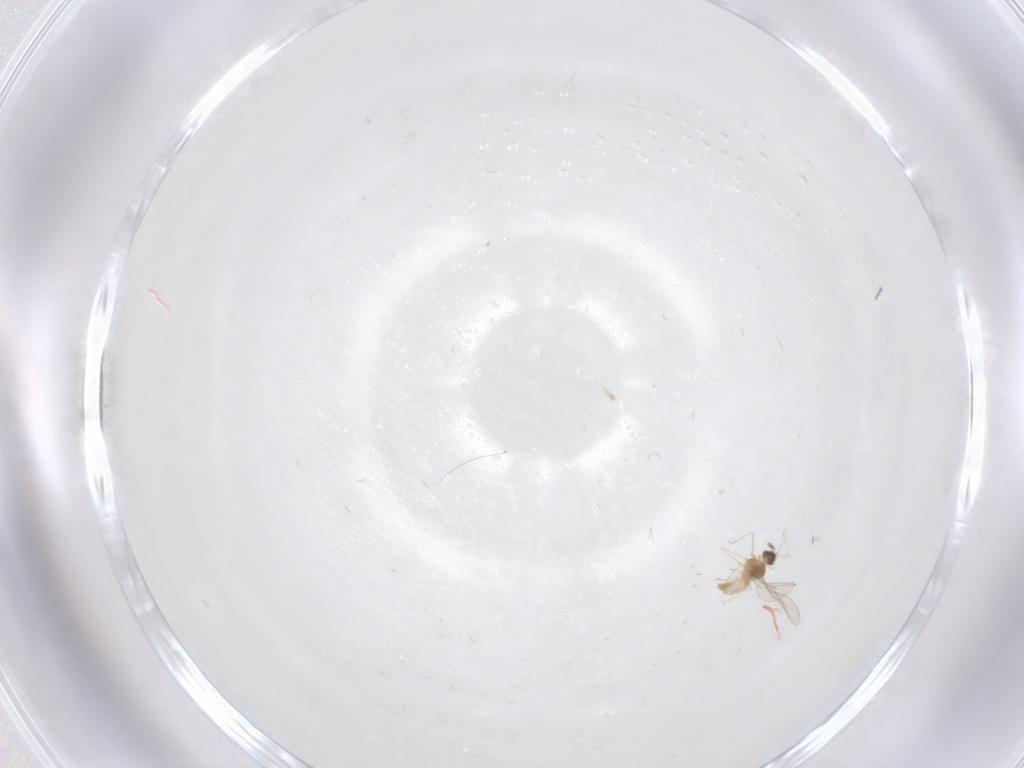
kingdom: Animalia
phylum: Arthropoda
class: Insecta
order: Diptera
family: Cecidomyiidae
